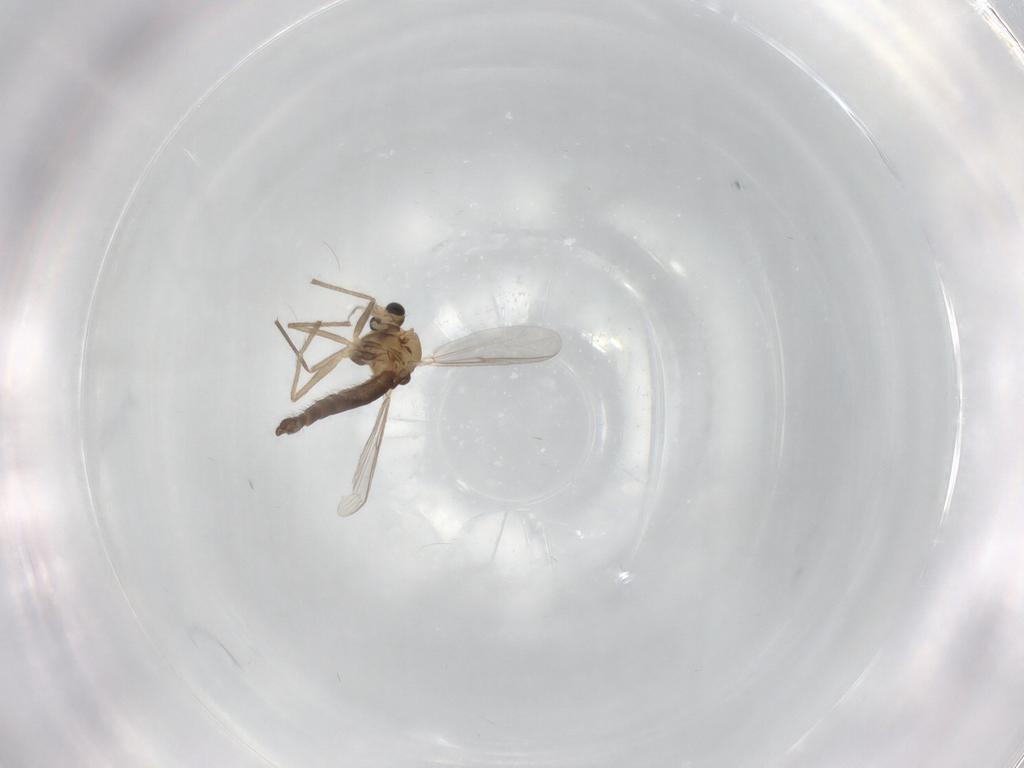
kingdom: Animalia
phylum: Arthropoda
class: Insecta
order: Diptera
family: Chironomidae
